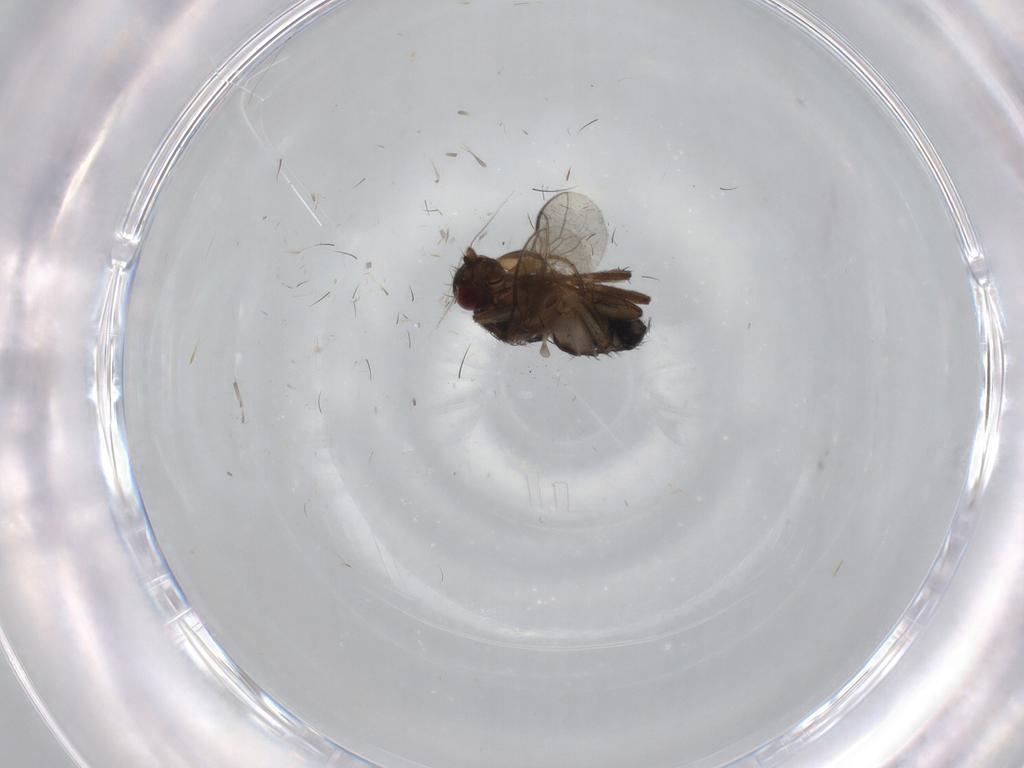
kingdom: Animalia
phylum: Arthropoda
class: Insecta
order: Diptera
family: Sphaeroceridae
